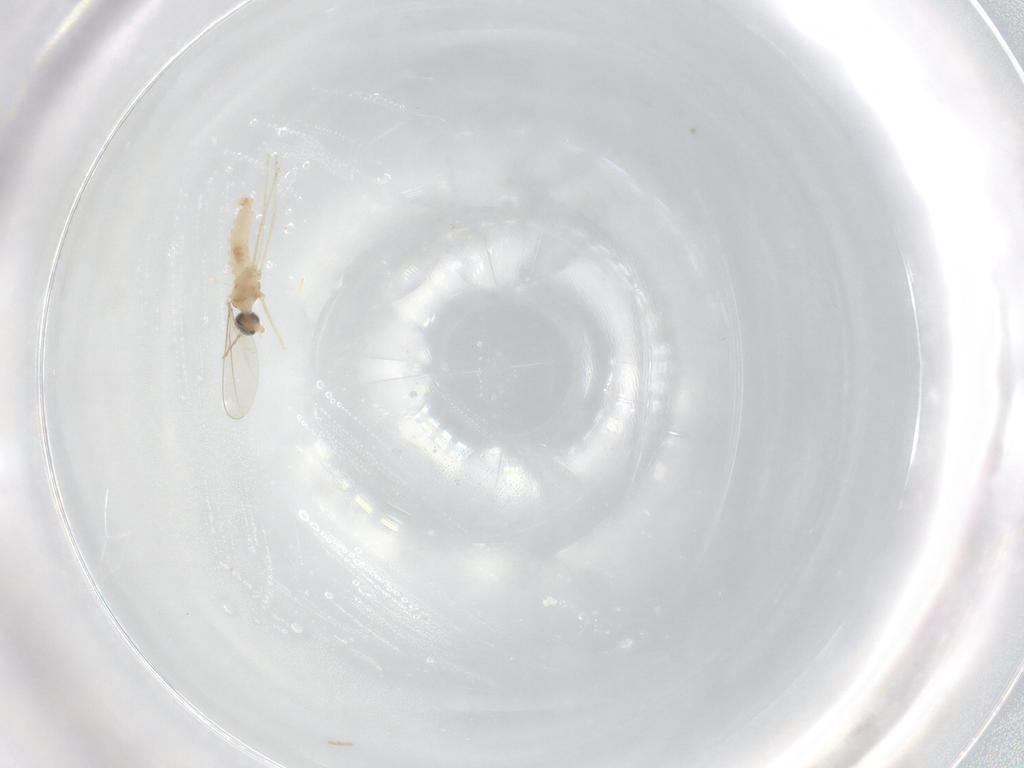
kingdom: Animalia
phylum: Arthropoda
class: Insecta
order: Diptera
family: Cecidomyiidae
